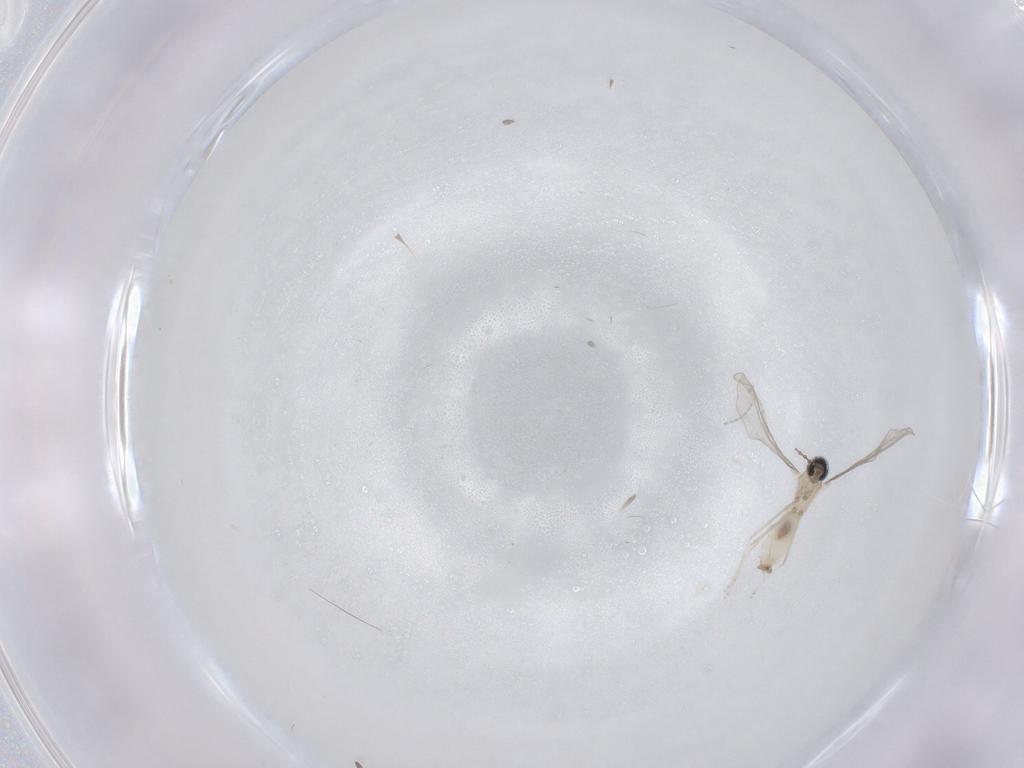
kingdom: Animalia
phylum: Arthropoda
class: Insecta
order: Diptera
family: Cecidomyiidae
